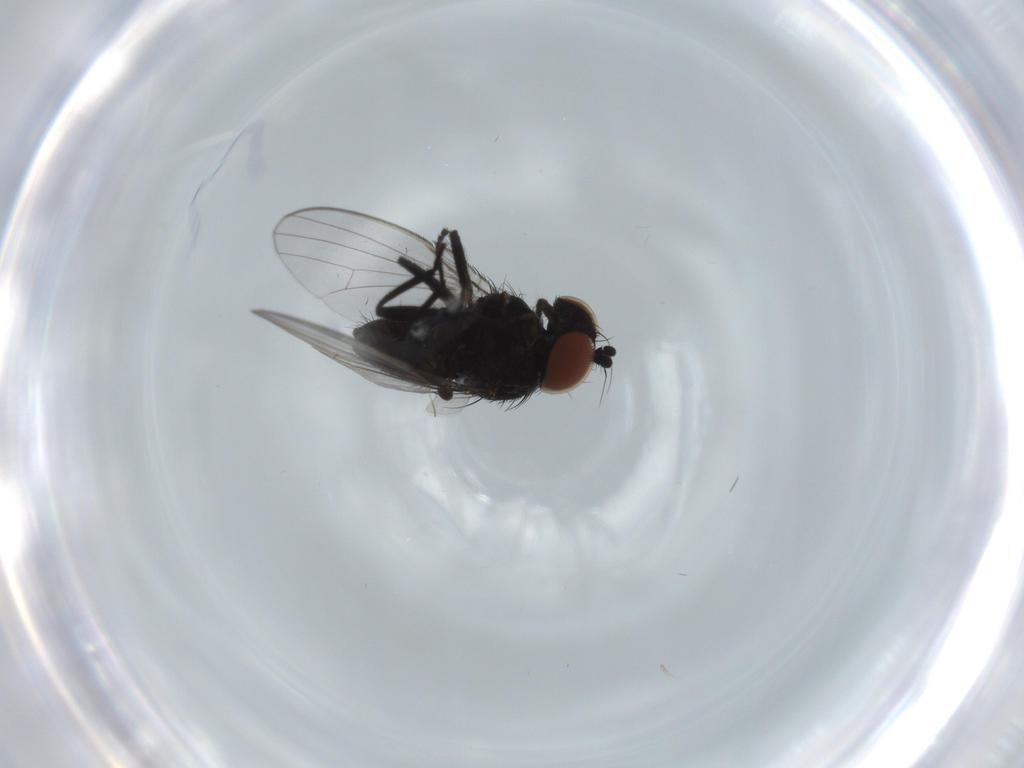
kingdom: Animalia
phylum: Arthropoda
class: Insecta
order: Diptera
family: Milichiidae
